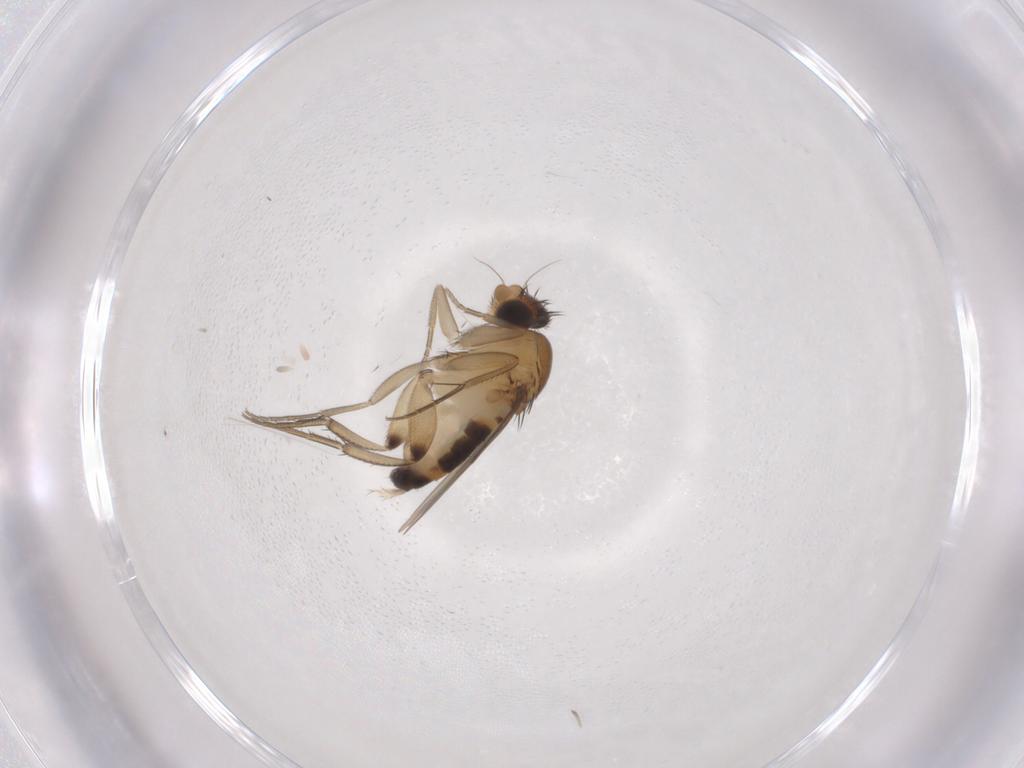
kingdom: Animalia
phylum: Arthropoda
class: Insecta
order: Diptera
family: Phoridae
